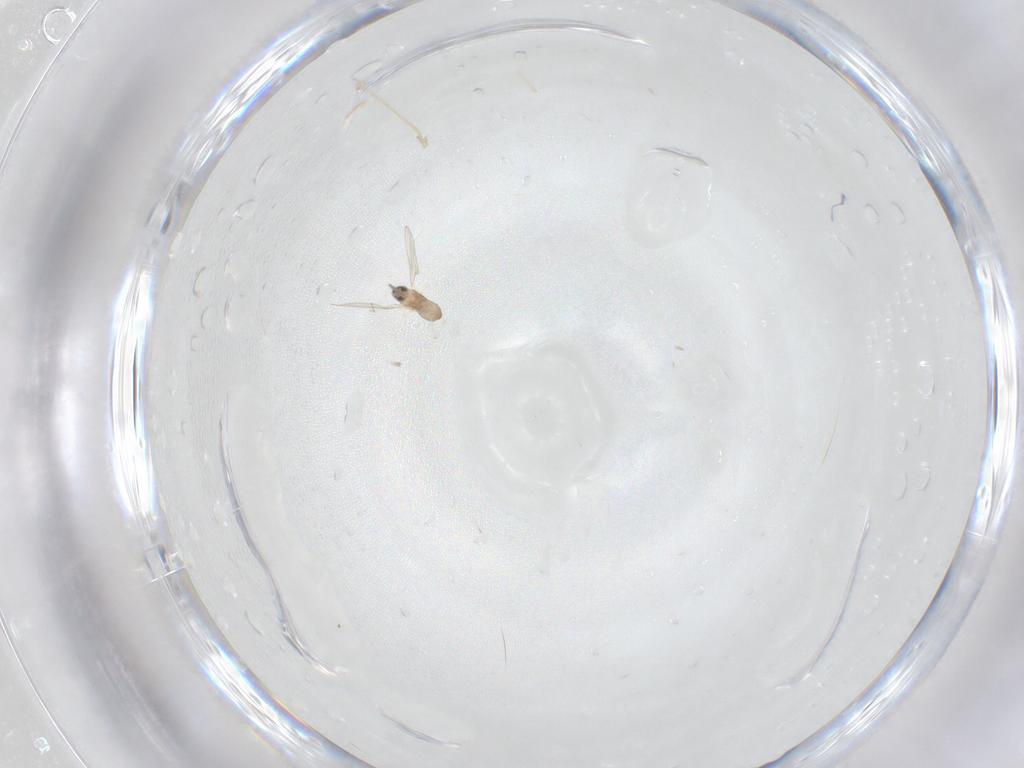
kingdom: Animalia
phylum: Arthropoda
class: Insecta
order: Diptera
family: Cecidomyiidae
